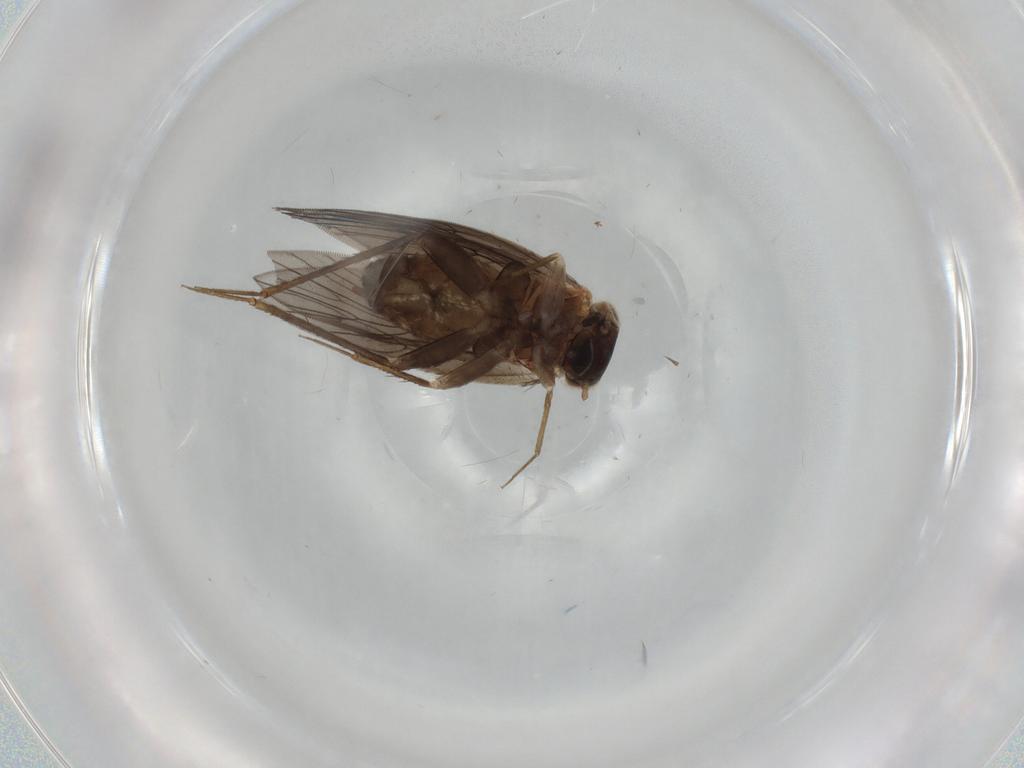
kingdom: Animalia
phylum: Arthropoda
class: Insecta
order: Psocodea
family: Lepidopsocidae
